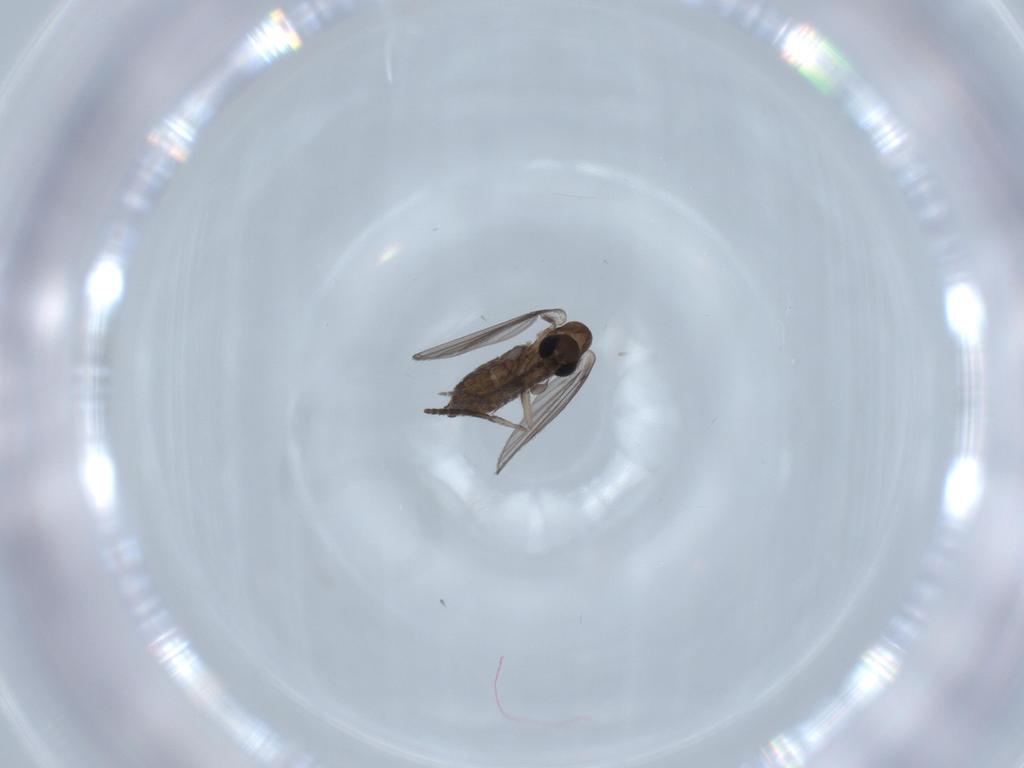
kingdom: Animalia
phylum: Arthropoda
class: Insecta
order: Diptera
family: Psychodidae
